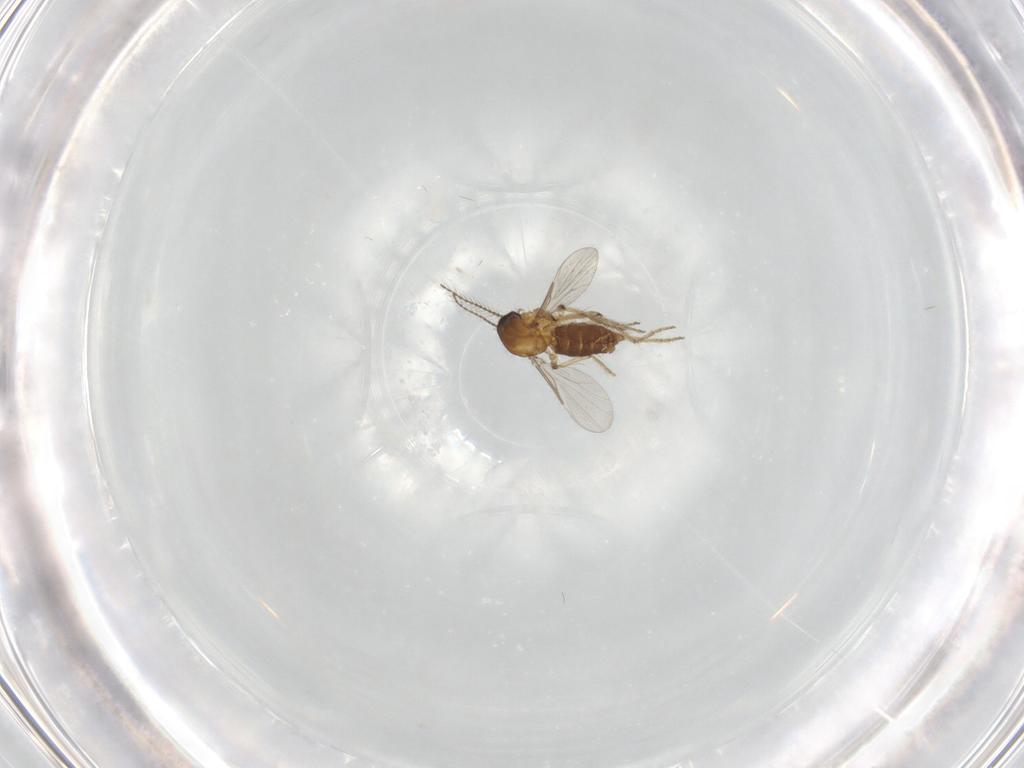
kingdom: Animalia
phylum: Arthropoda
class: Insecta
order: Diptera
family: Ceratopogonidae
